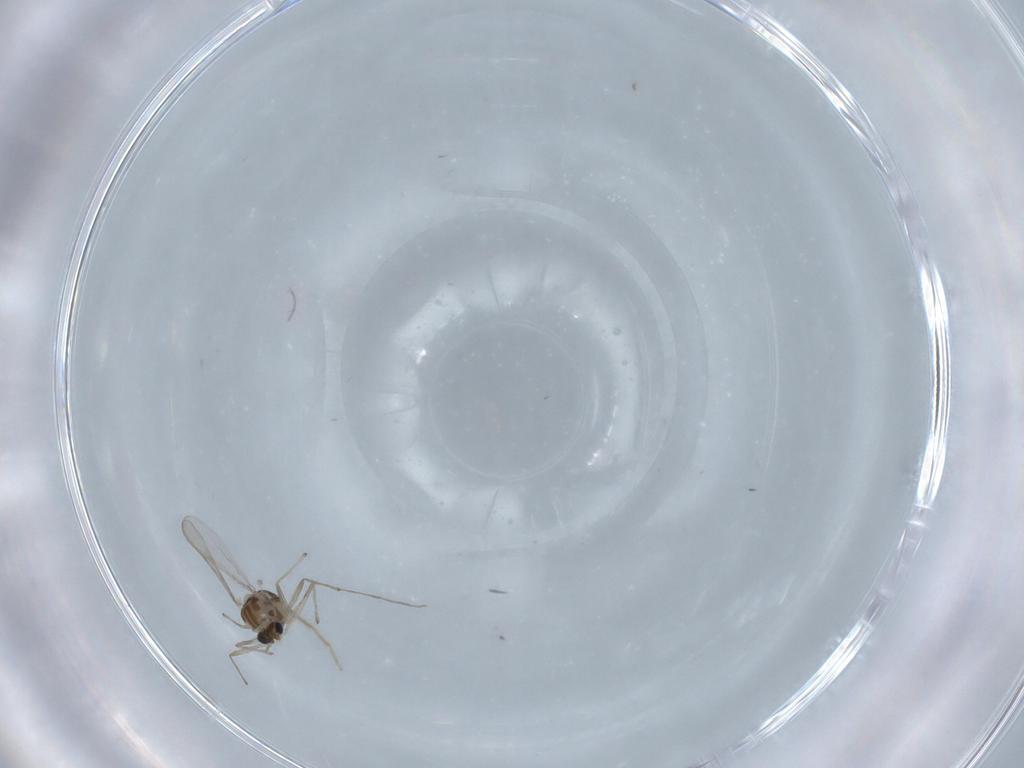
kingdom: Animalia
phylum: Arthropoda
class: Insecta
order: Diptera
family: Chironomidae
